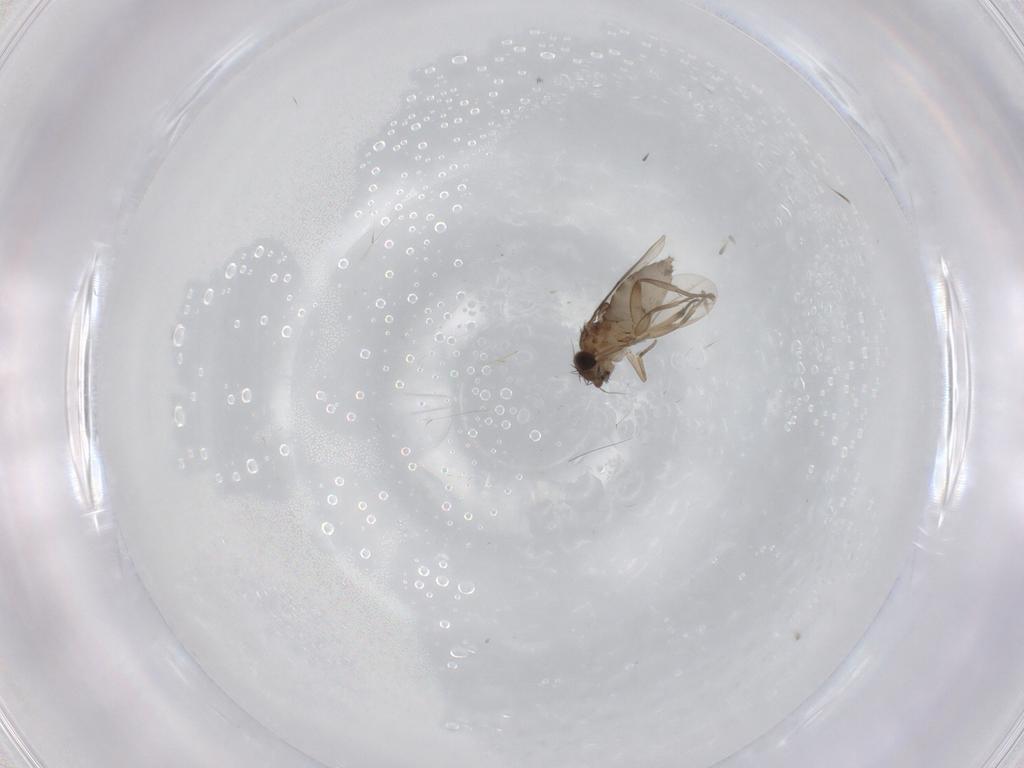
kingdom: Animalia
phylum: Arthropoda
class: Insecta
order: Diptera
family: Phoridae
